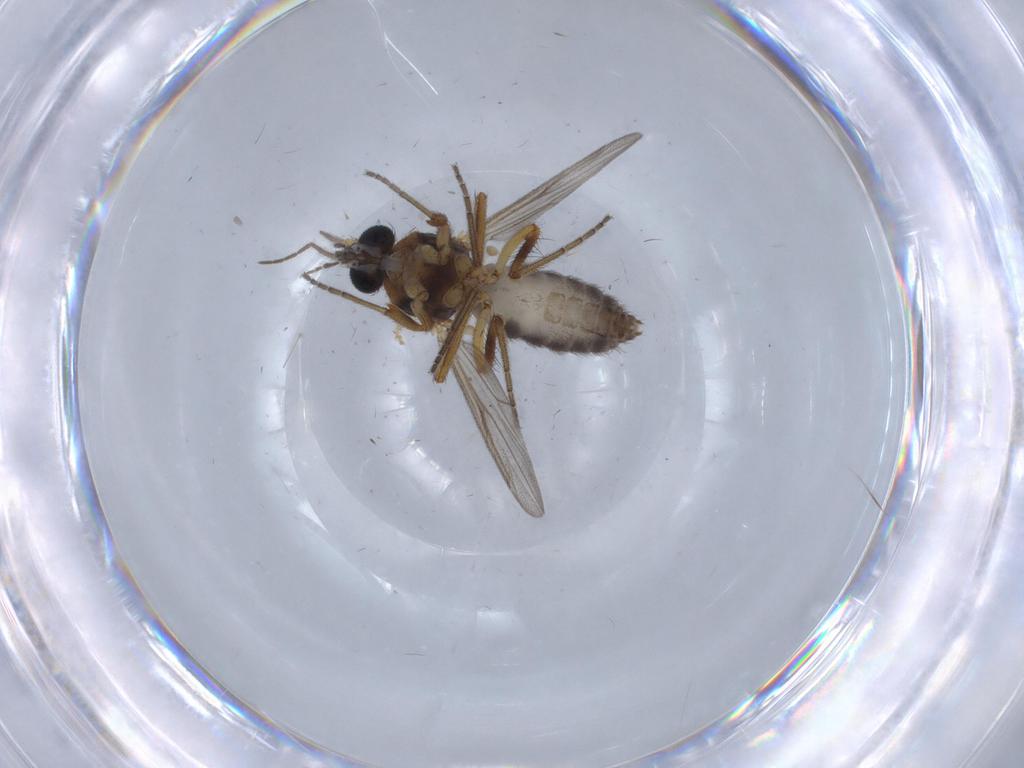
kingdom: Animalia
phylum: Arthropoda
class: Insecta
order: Diptera
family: Ceratopogonidae
